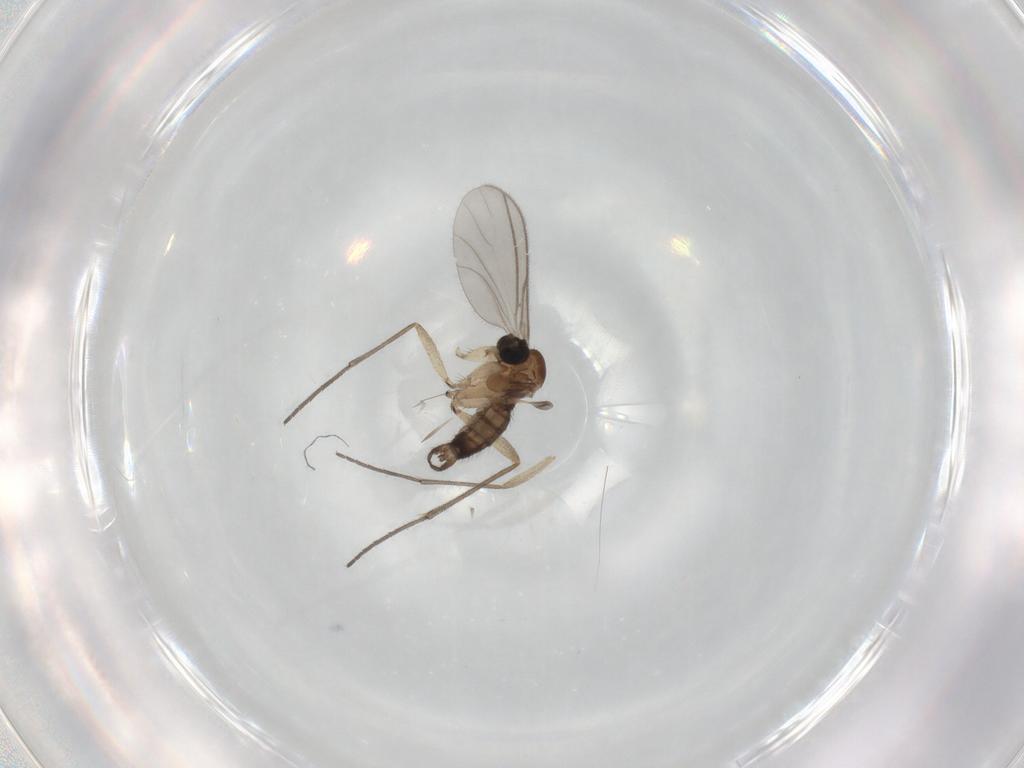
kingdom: Animalia
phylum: Arthropoda
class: Insecta
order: Diptera
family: Sciaridae
